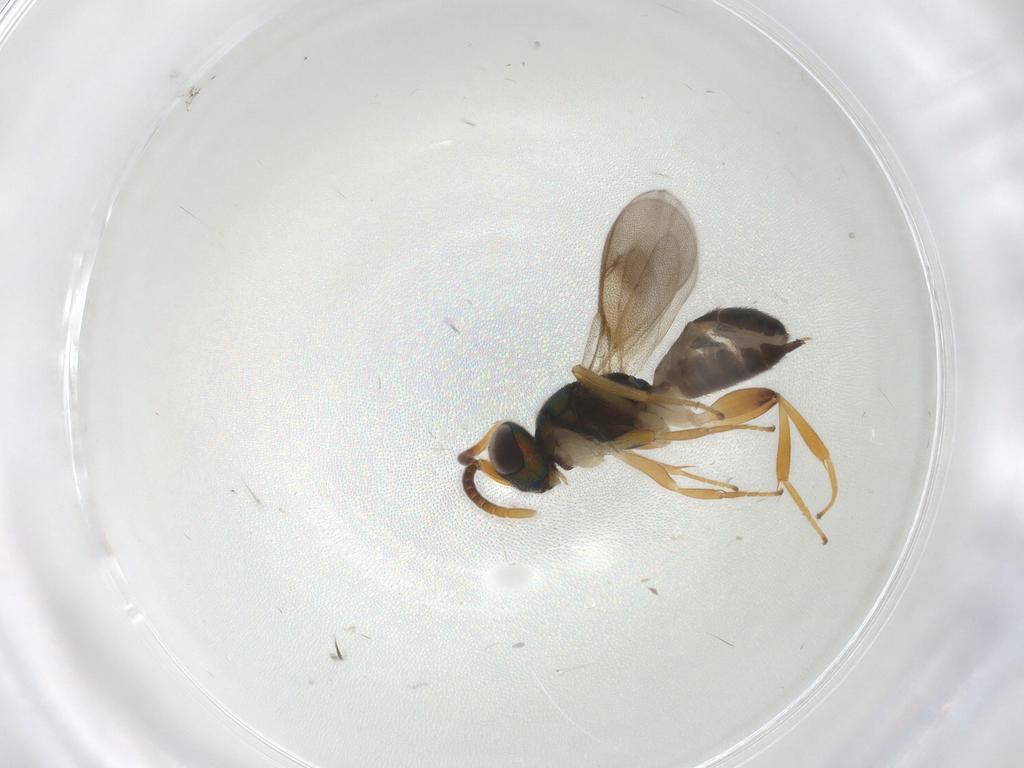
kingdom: Animalia
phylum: Arthropoda
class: Insecta
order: Hymenoptera
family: Eupelmidae
